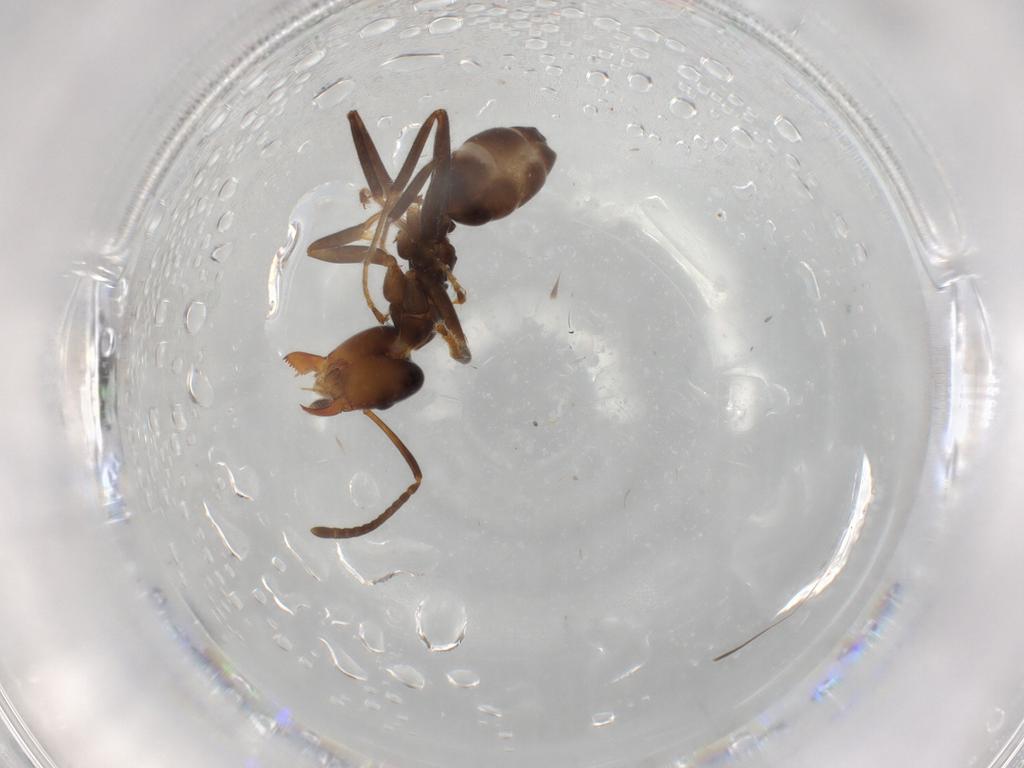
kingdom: Animalia
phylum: Arthropoda
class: Insecta
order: Hymenoptera
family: Formicidae
